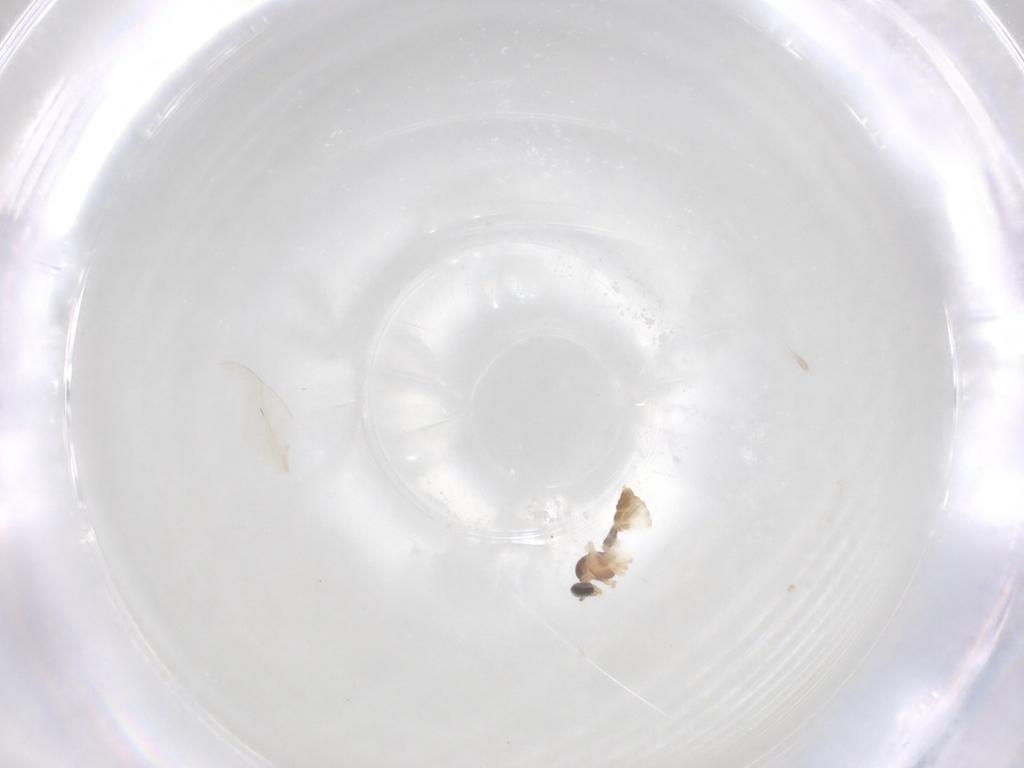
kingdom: Animalia
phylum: Arthropoda
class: Insecta
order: Diptera
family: Cecidomyiidae
